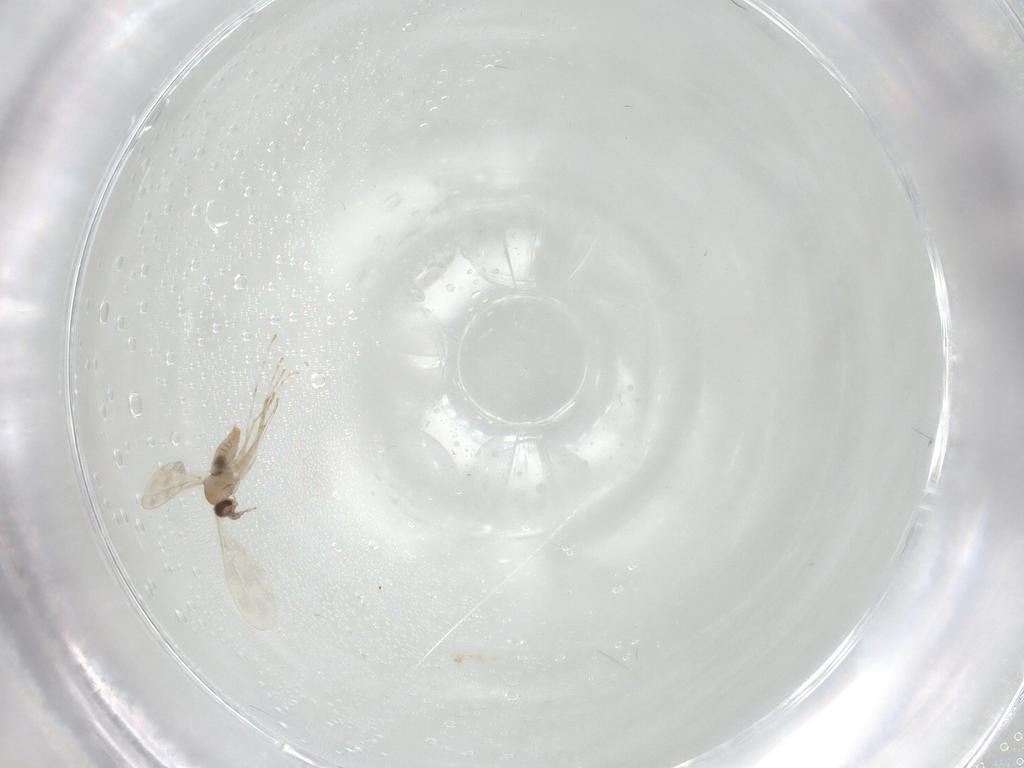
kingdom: Animalia
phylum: Arthropoda
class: Insecta
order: Diptera
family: Cecidomyiidae
